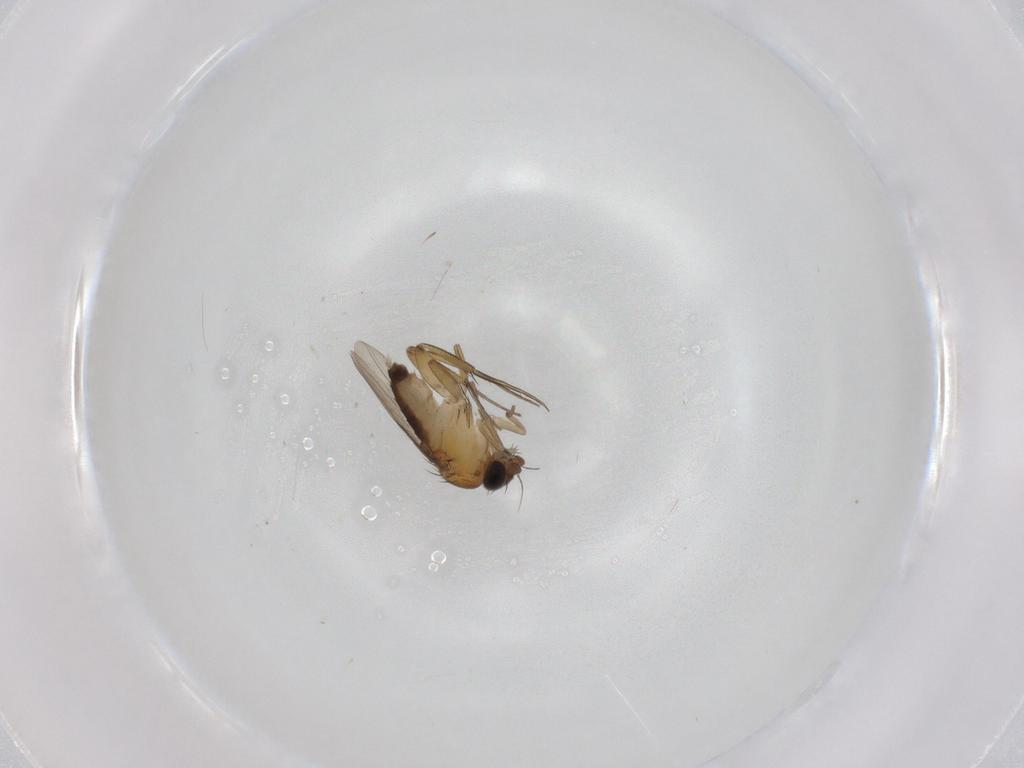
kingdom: Animalia
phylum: Arthropoda
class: Insecta
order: Diptera
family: Phoridae
